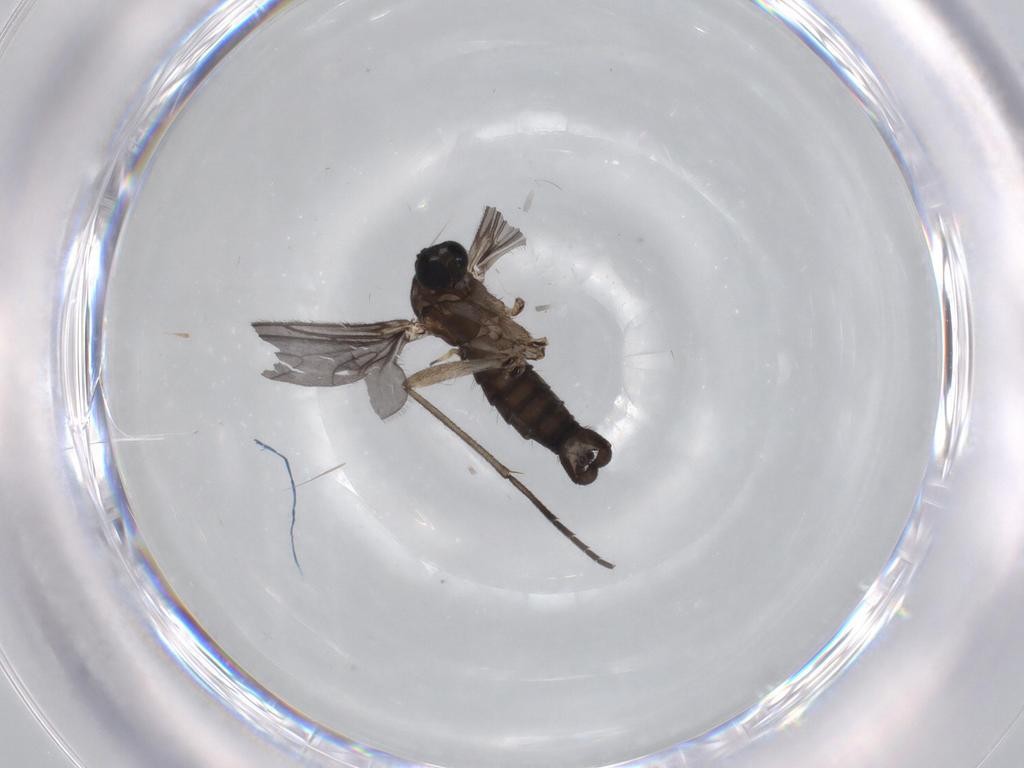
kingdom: Animalia
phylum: Arthropoda
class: Insecta
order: Diptera
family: Sciaridae
